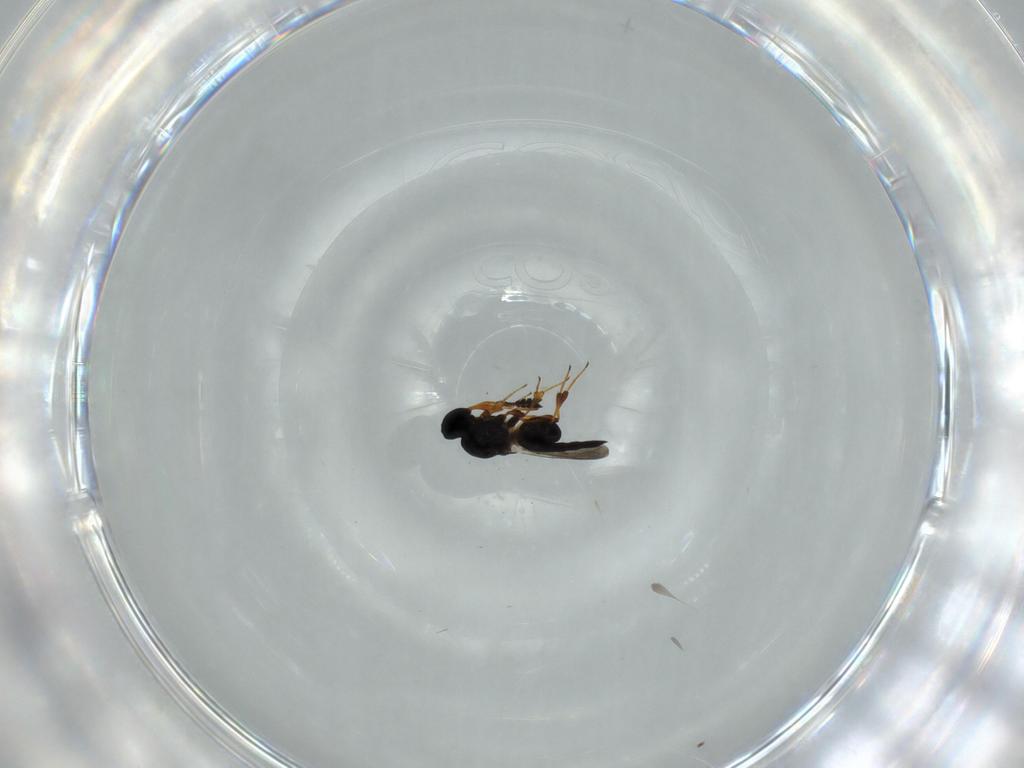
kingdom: Animalia
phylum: Arthropoda
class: Insecta
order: Hymenoptera
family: Platygastridae
